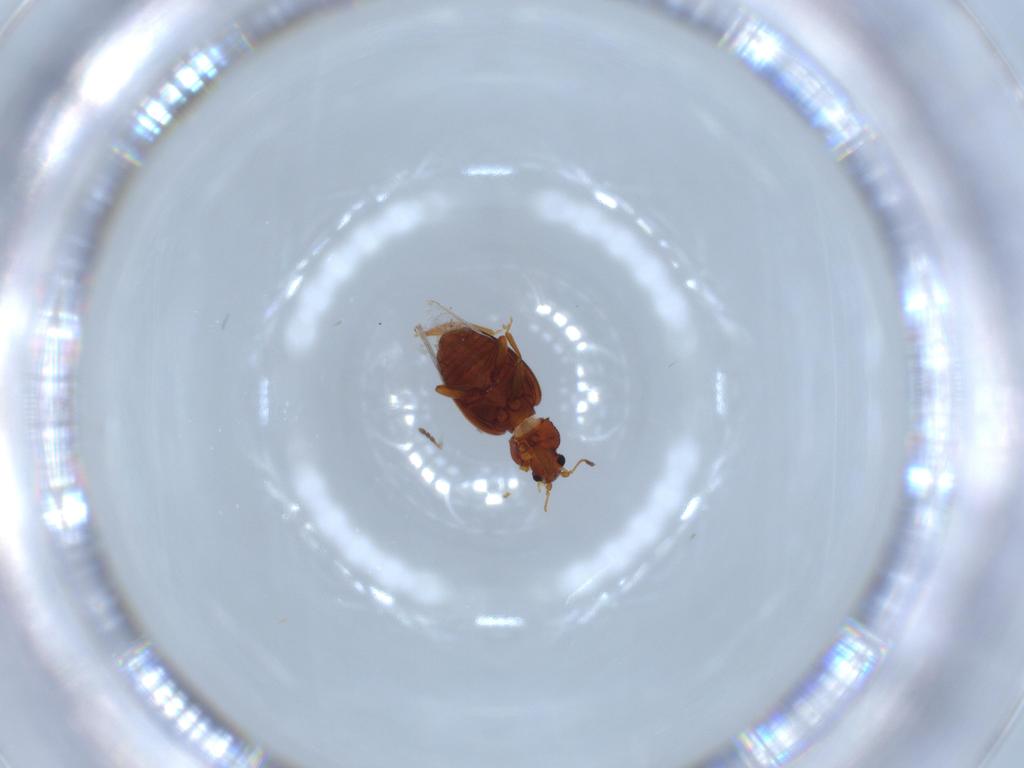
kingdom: Animalia
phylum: Arthropoda
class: Insecta
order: Coleoptera
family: Latridiidae
